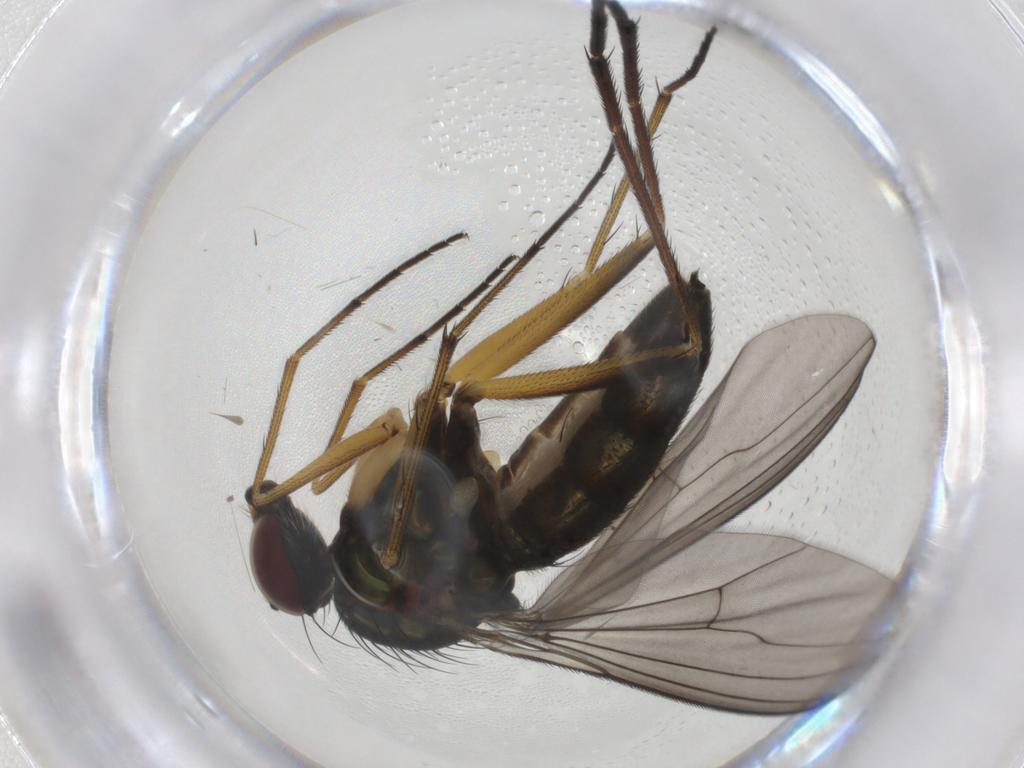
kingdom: Animalia
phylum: Arthropoda
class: Insecta
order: Diptera
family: Dolichopodidae
